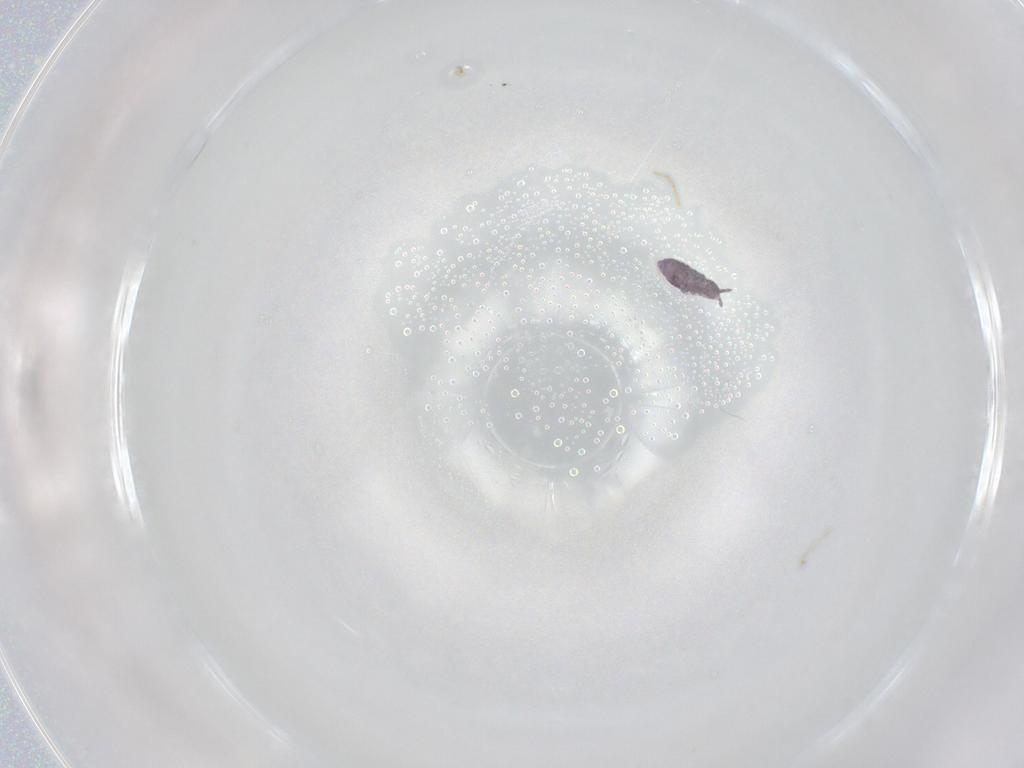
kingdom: Animalia
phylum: Arthropoda
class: Collembola
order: Poduromorpha
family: Brachystomellidae
